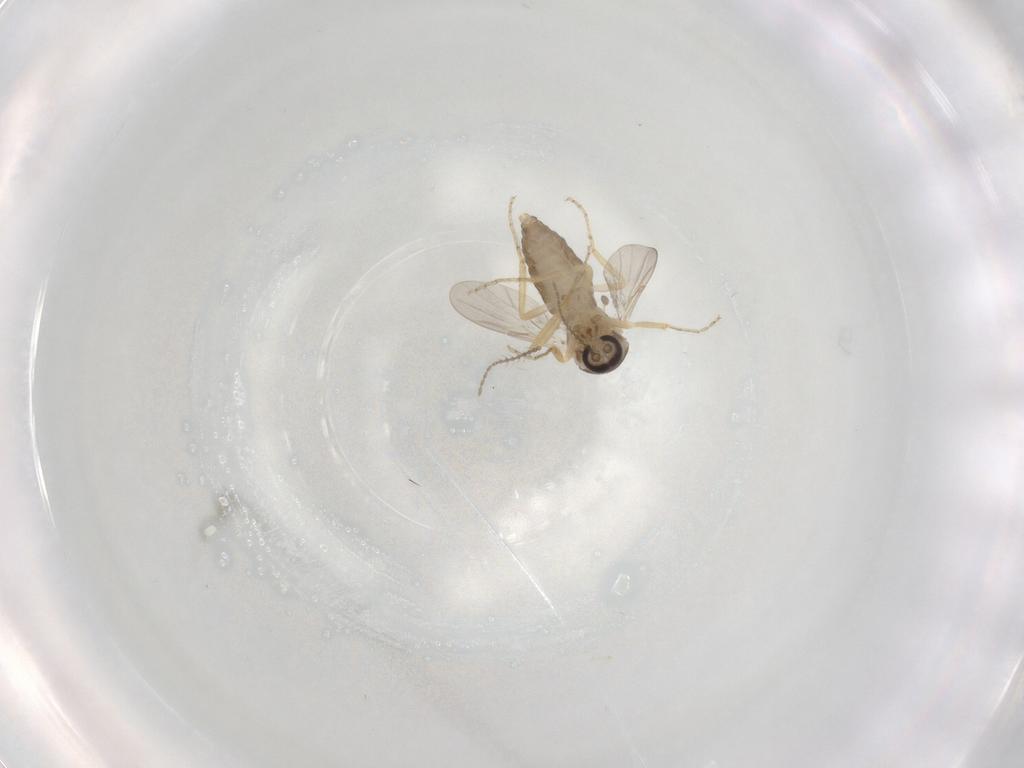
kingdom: Animalia
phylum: Arthropoda
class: Insecta
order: Diptera
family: Ceratopogonidae
